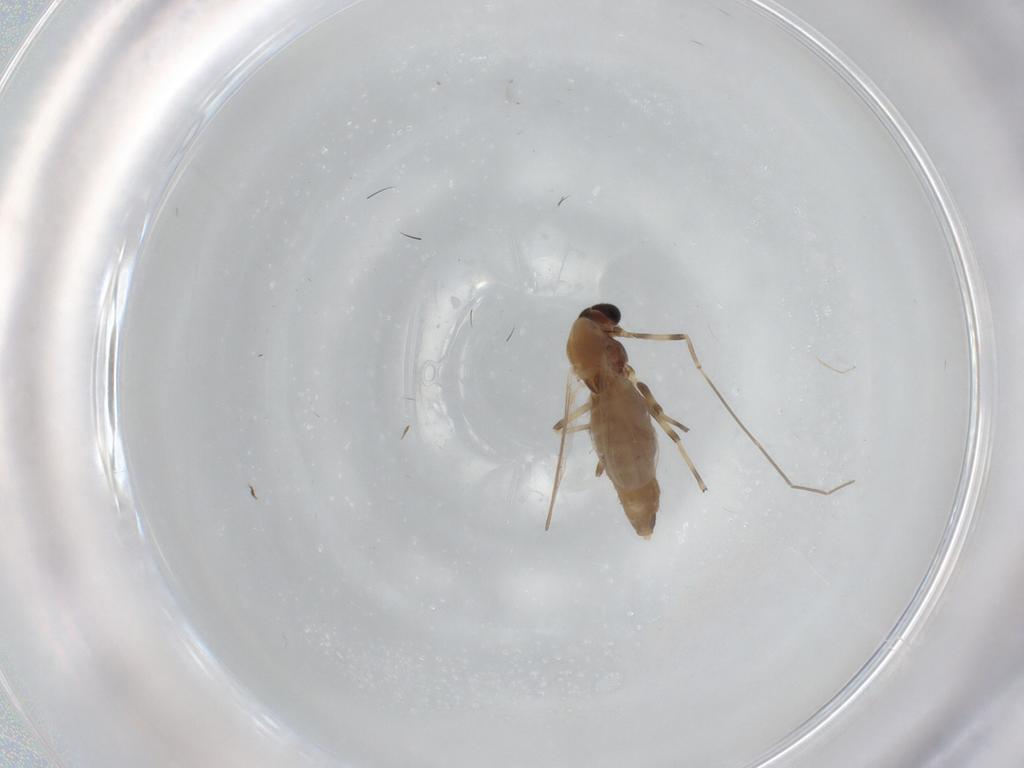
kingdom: Animalia
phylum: Arthropoda
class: Insecta
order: Diptera
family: Chironomidae
